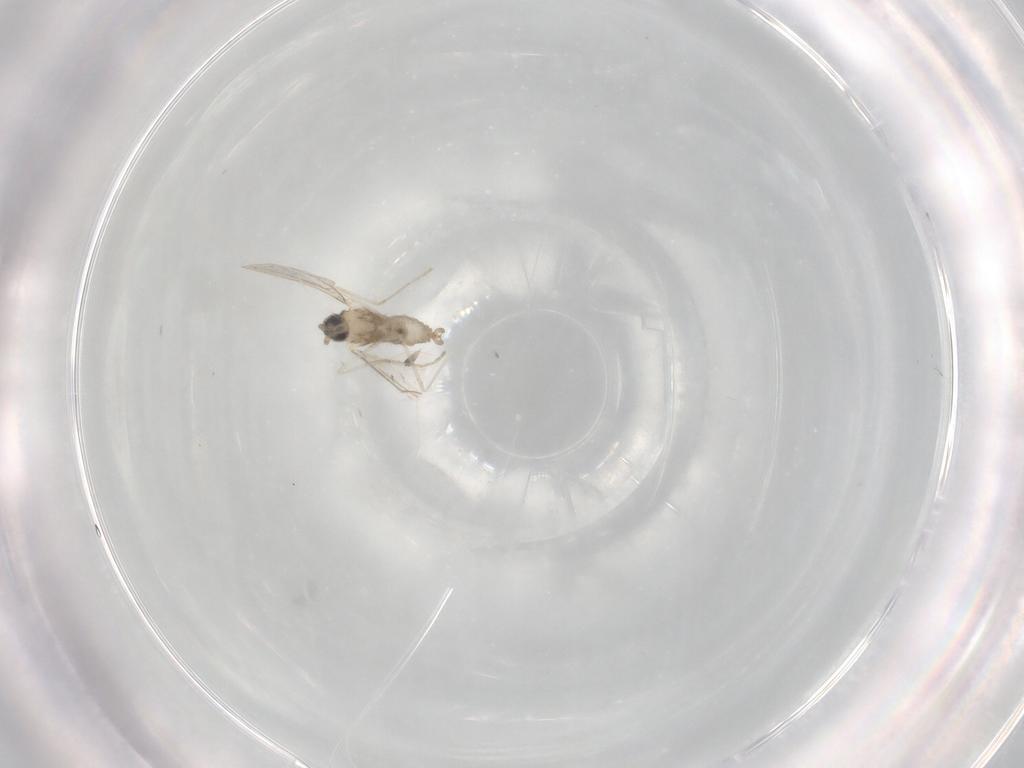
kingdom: Animalia
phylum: Arthropoda
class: Insecta
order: Diptera
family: Cecidomyiidae
